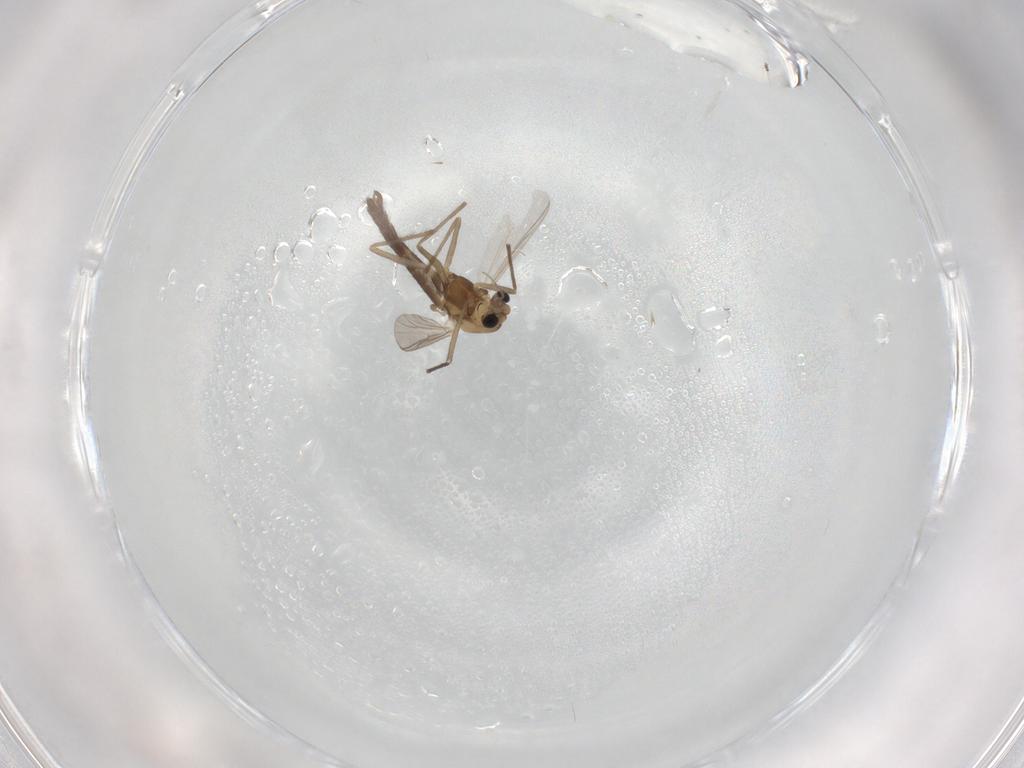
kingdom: Animalia
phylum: Arthropoda
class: Insecta
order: Diptera
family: Chironomidae
